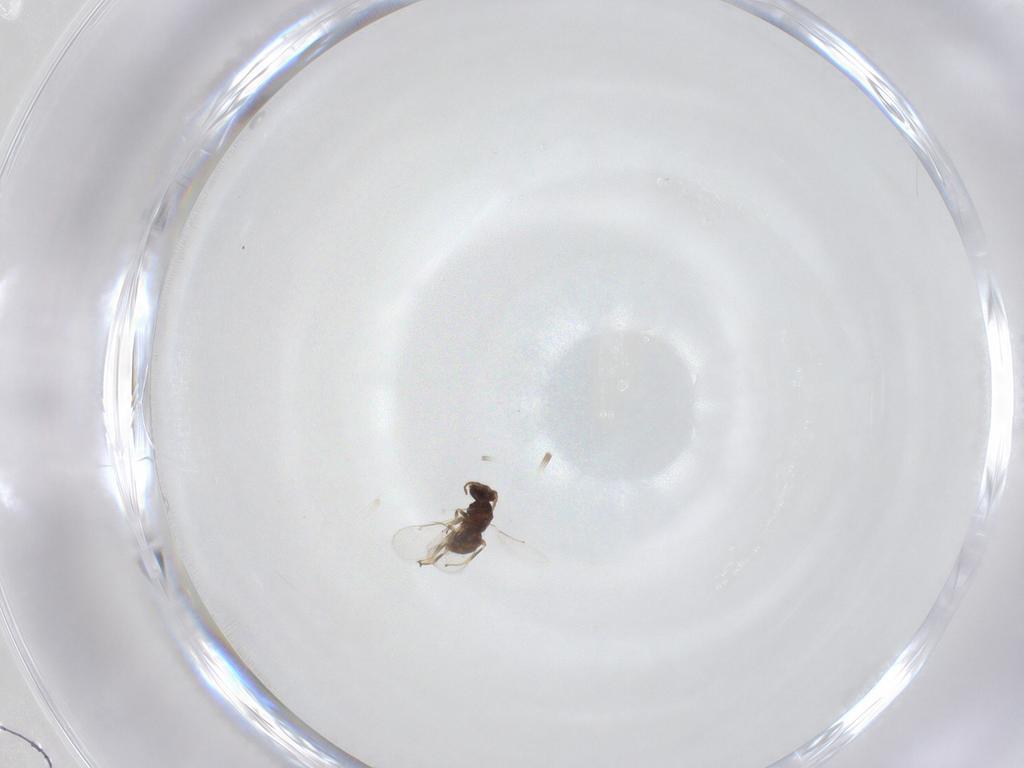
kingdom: Animalia
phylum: Arthropoda
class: Insecta
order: Hymenoptera
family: Aphelinidae
